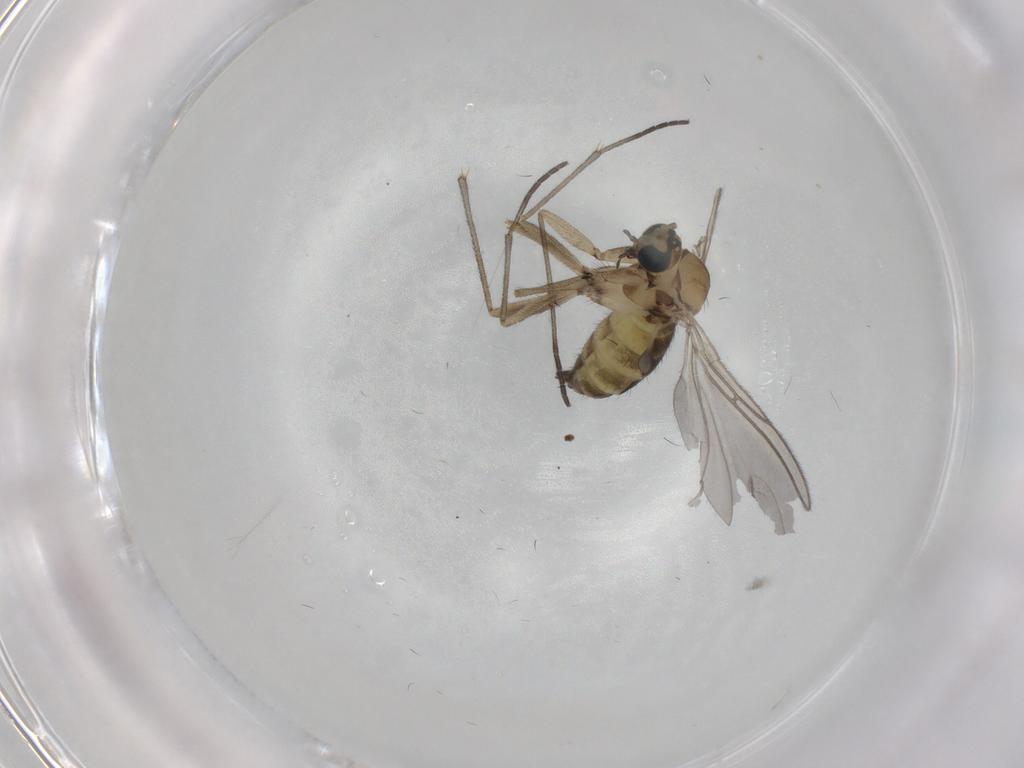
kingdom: Animalia
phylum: Arthropoda
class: Insecta
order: Diptera
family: Sciaridae
